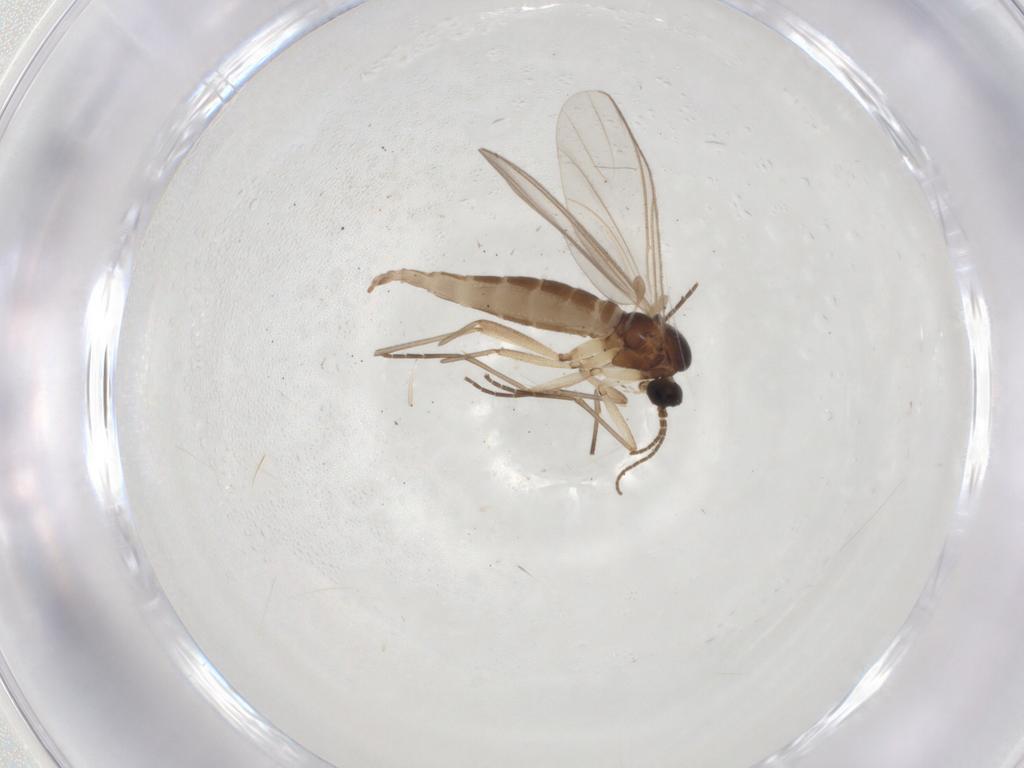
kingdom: Animalia
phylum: Arthropoda
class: Insecta
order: Diptera
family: Sciaridae
